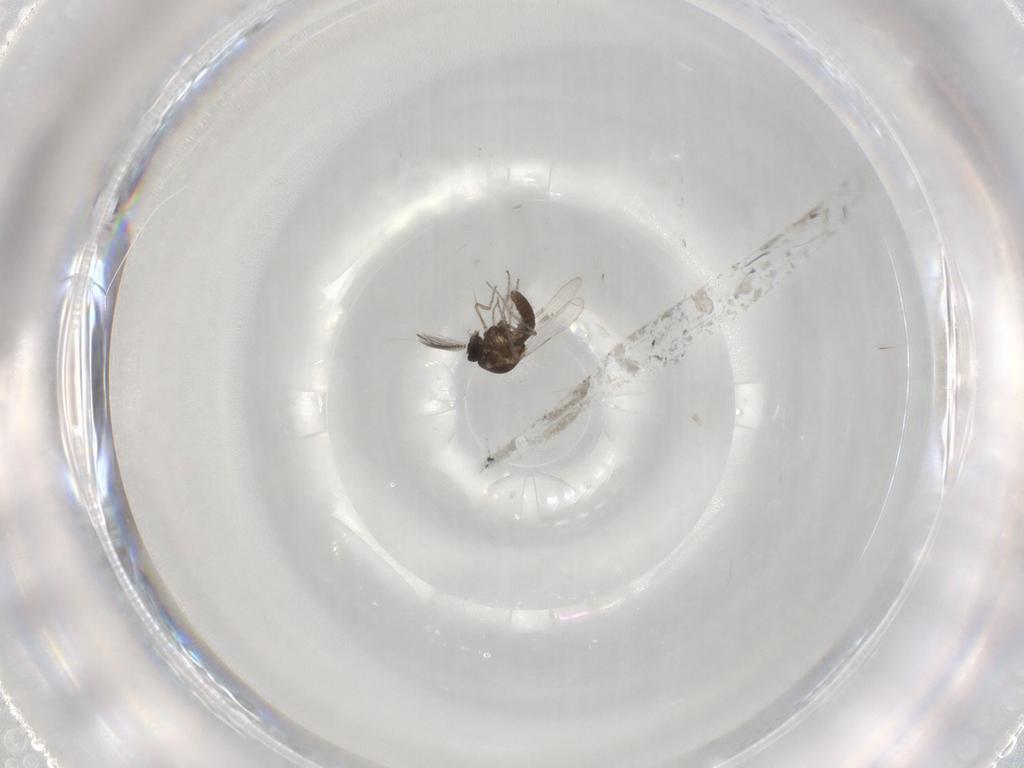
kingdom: Animalia
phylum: Arthropoda
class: Insecta
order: Diptera
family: Ceratopogonidae
